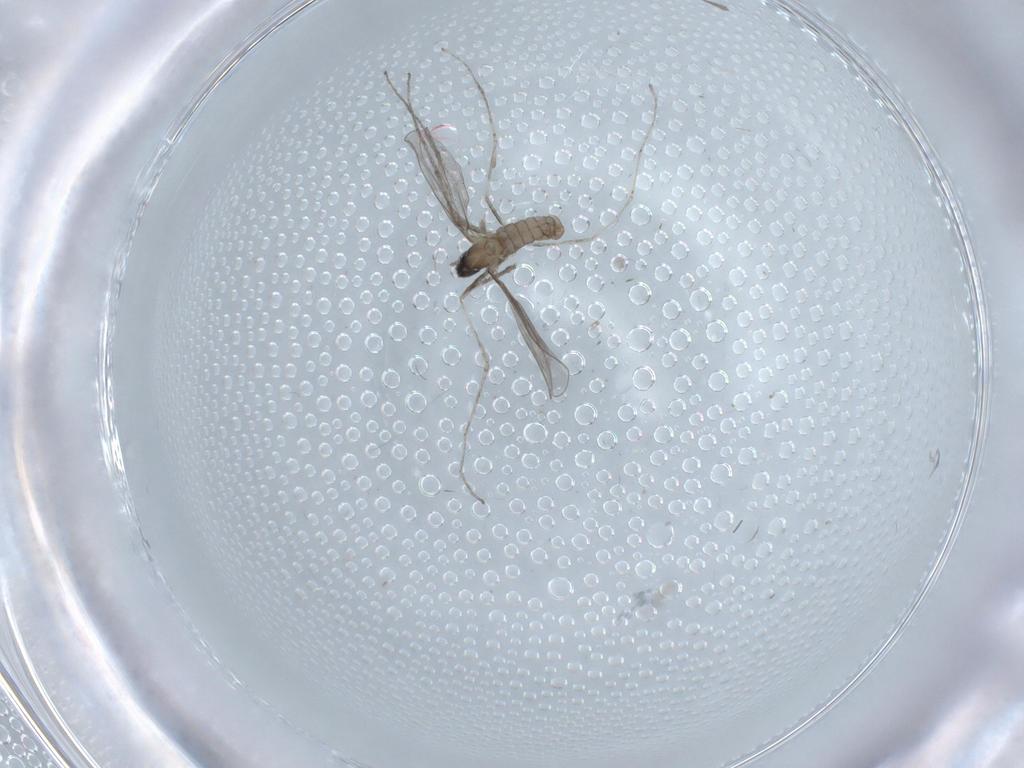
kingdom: Animalia
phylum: Arthropoda
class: Insecta
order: Diptera
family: Cecidomyiidae
